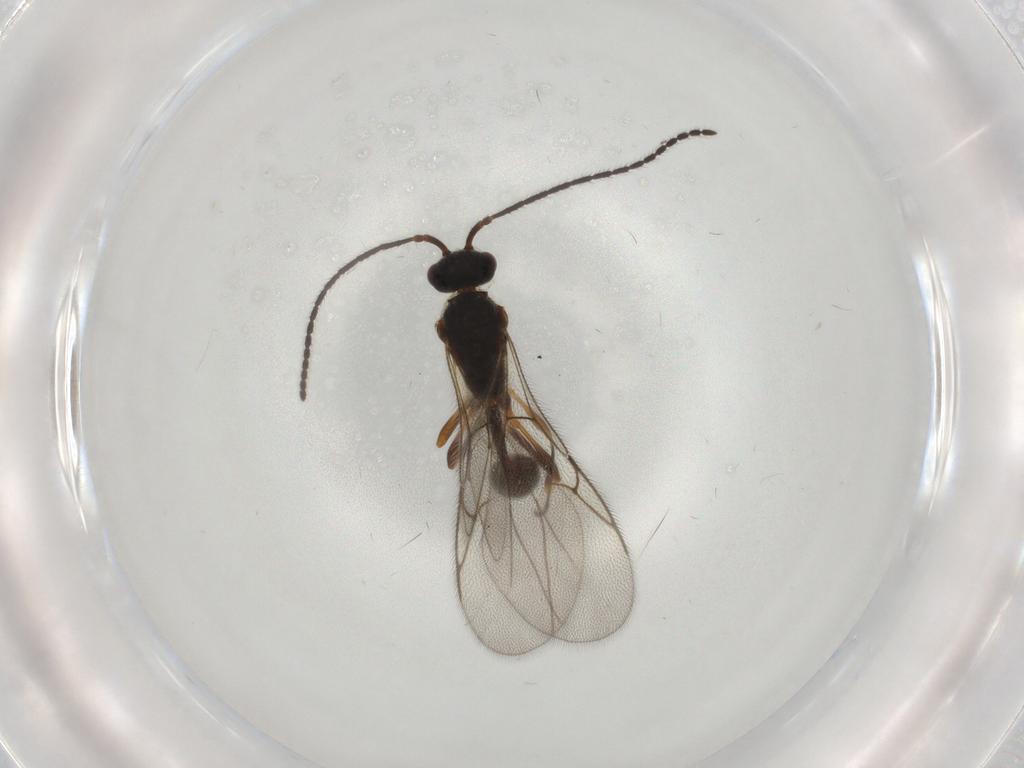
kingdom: Animalia
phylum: Arthropoda
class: Insecta
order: Hymenoptera
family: Diapriidae
